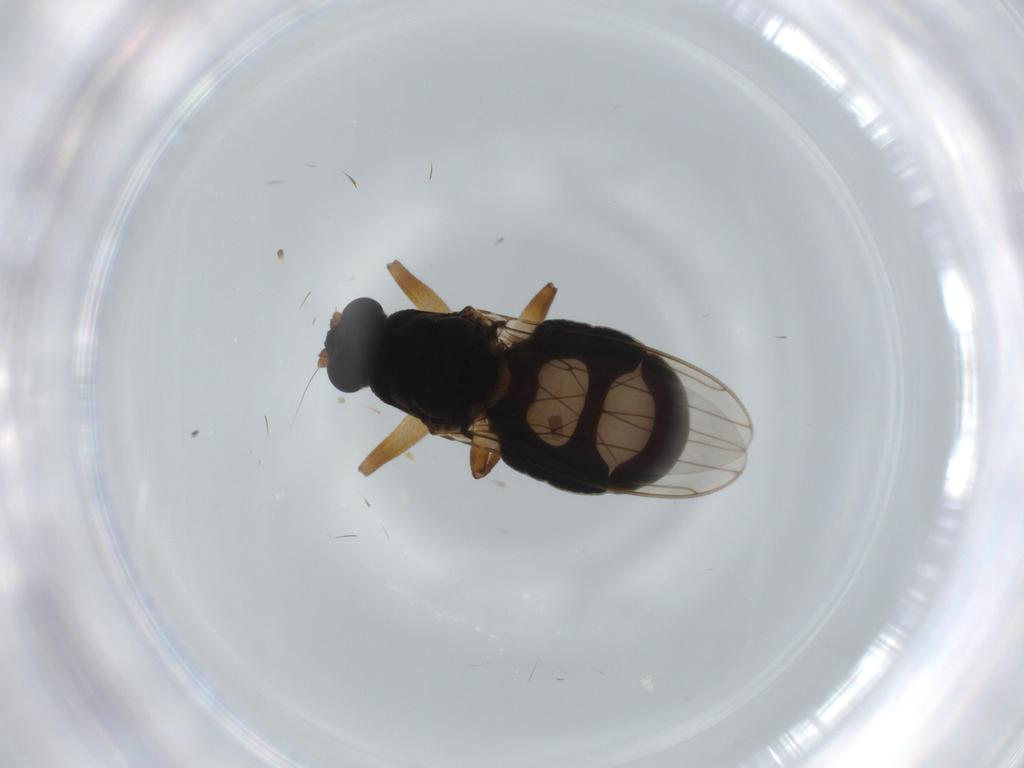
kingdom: Animalia
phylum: Arthropoda
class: Insecta
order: Diptera
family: Sphaeroceridae
